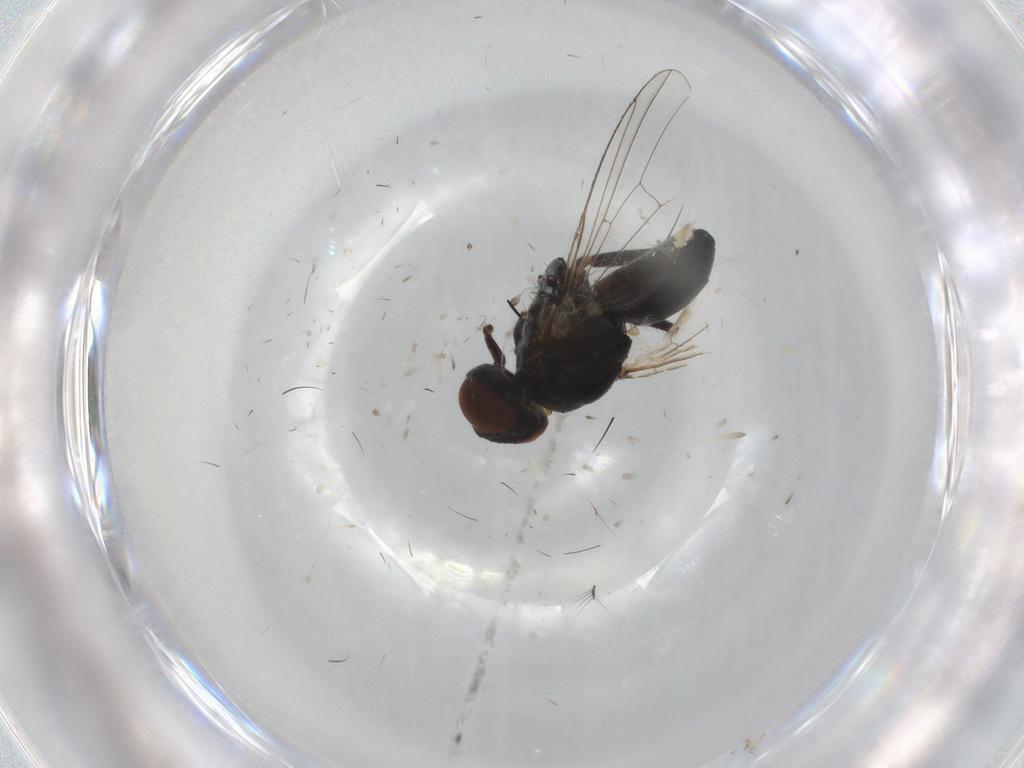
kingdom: Animalia
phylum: Arthropoda
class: Insecta
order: Diptera
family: Muscidae
